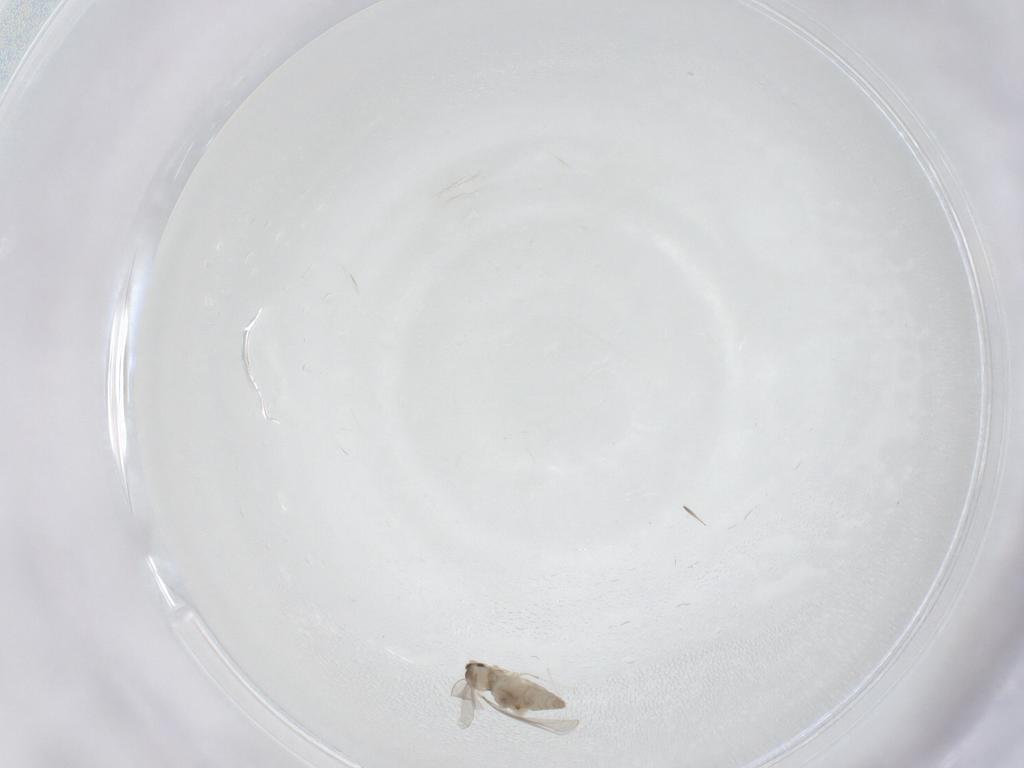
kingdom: Animalia
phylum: Arthropoda
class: Insecta
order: Diptera
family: Cecidomyiidae
